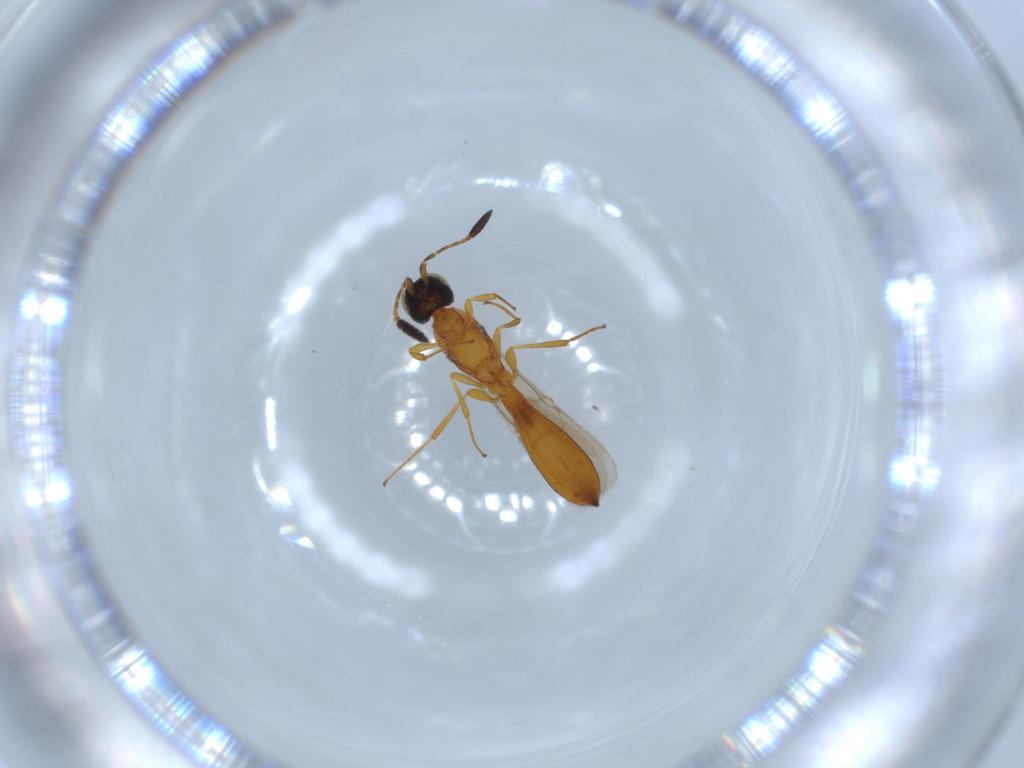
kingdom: Animalia
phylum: Arthropoda
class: Insecta
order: Hymenoptera
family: Scelionidae
